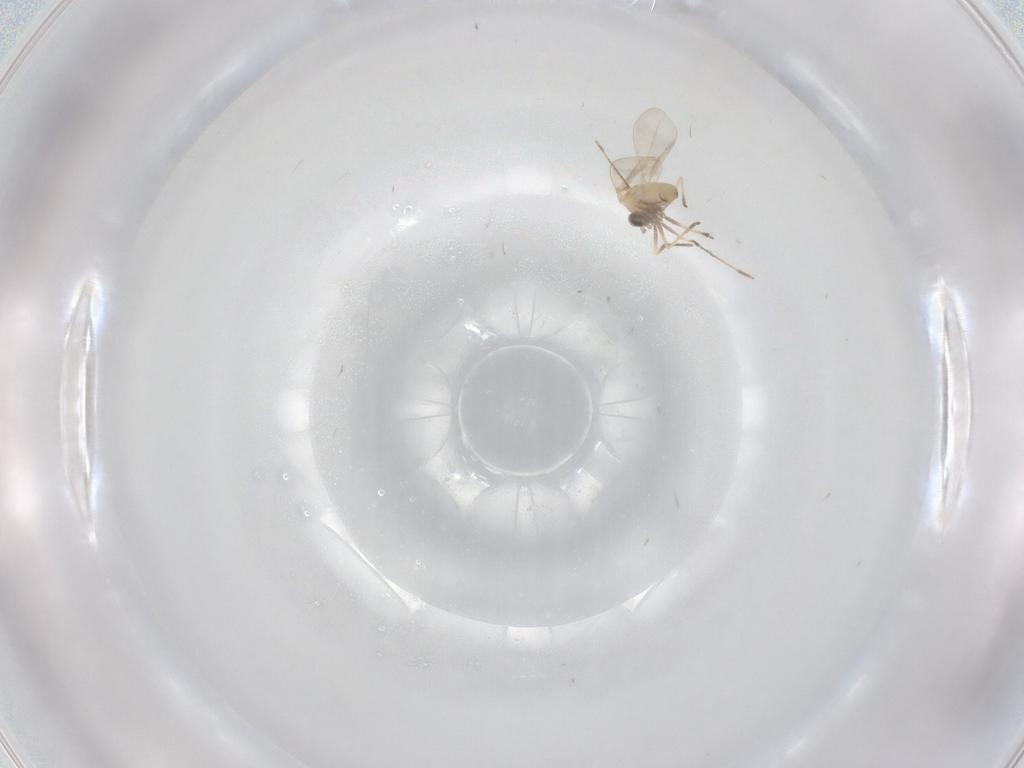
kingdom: Animalia
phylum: Arthropoda
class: Insecta
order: Diptera
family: Cecidomyiidae
